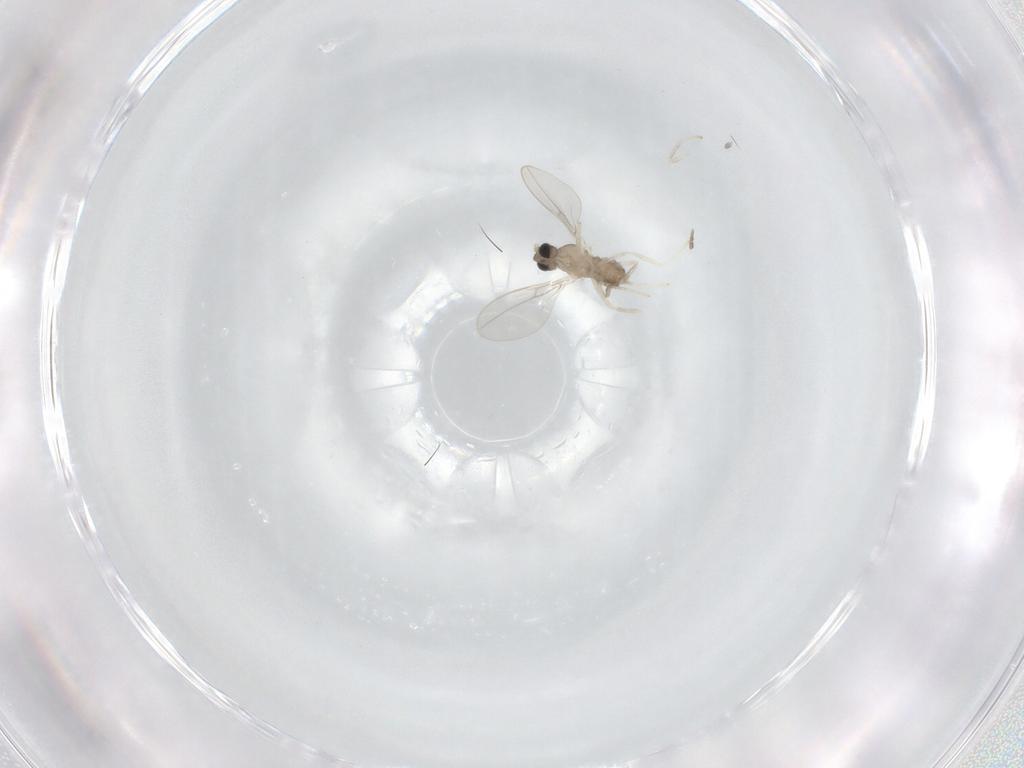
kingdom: Animalia
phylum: Arthropoda
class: Insecta
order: Diptera
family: Cecidomyiidae
